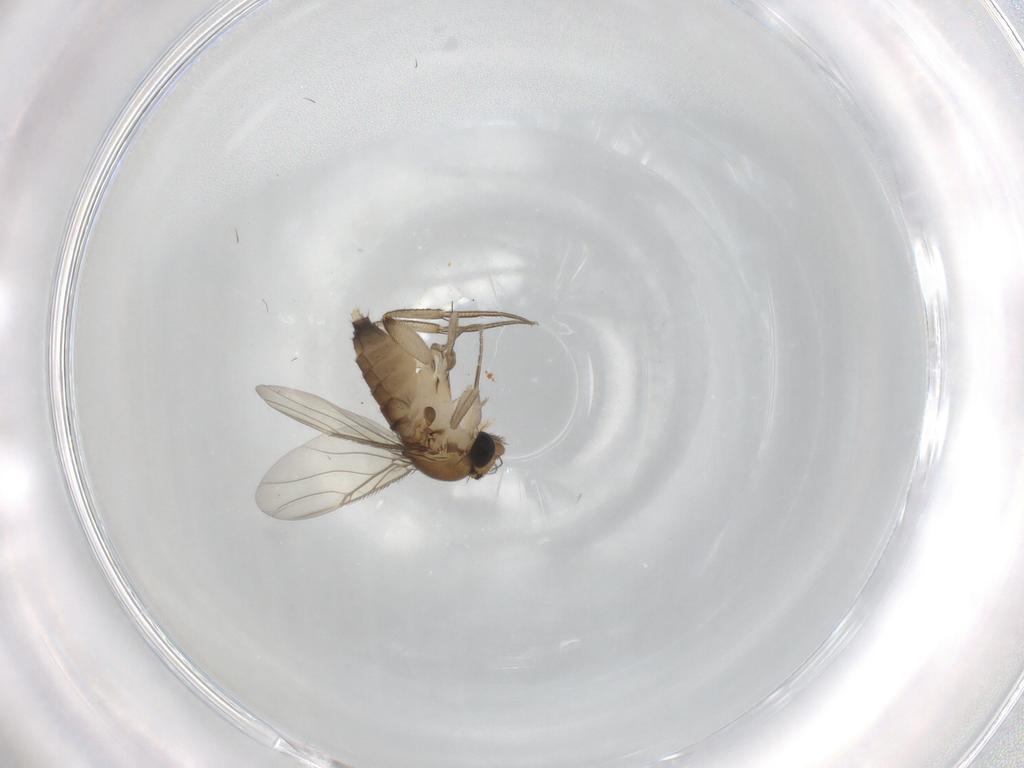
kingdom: Animalia
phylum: Arthropoda
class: Insecta
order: Diptera
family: Phoridae
